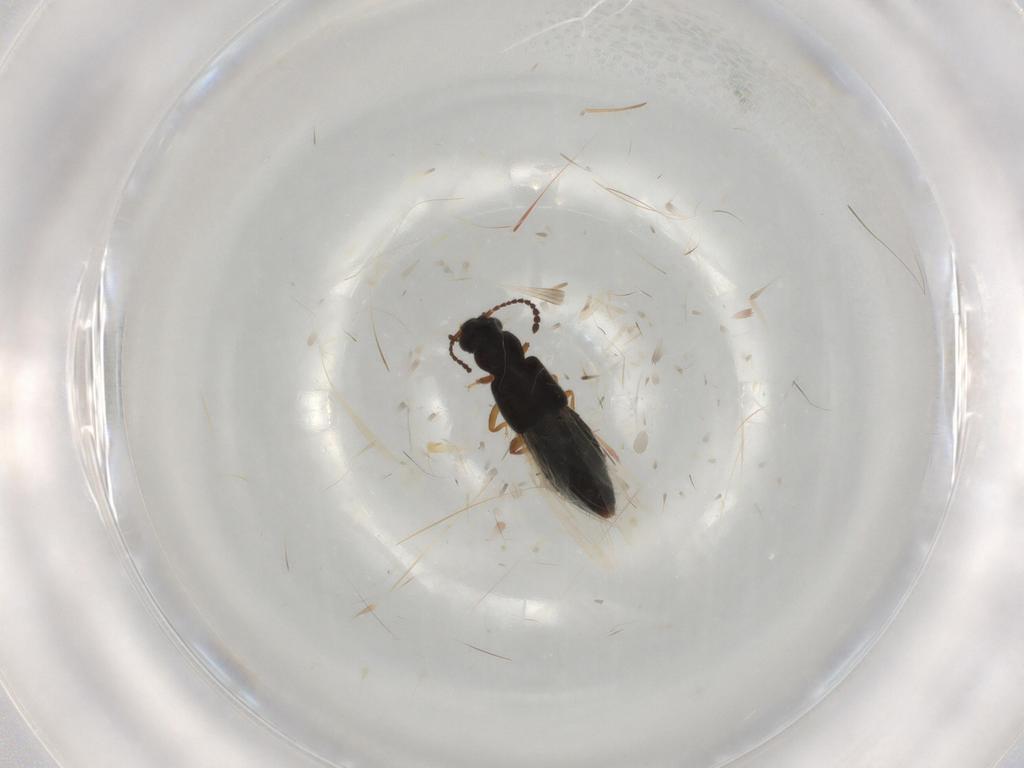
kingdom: Animalia
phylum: Arthropoda
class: Insecta
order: Coleoptera
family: Staphylinidae
